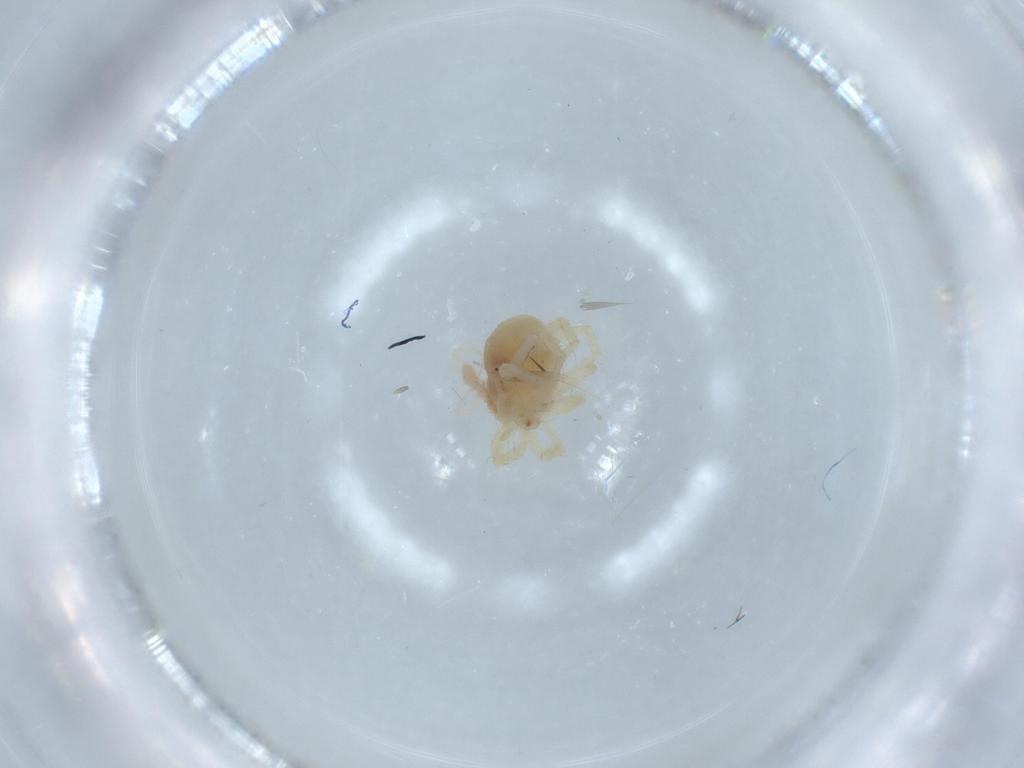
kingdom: Animalia
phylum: Arthropoda
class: Arachnida
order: Trombidiformes
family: Anystidae
